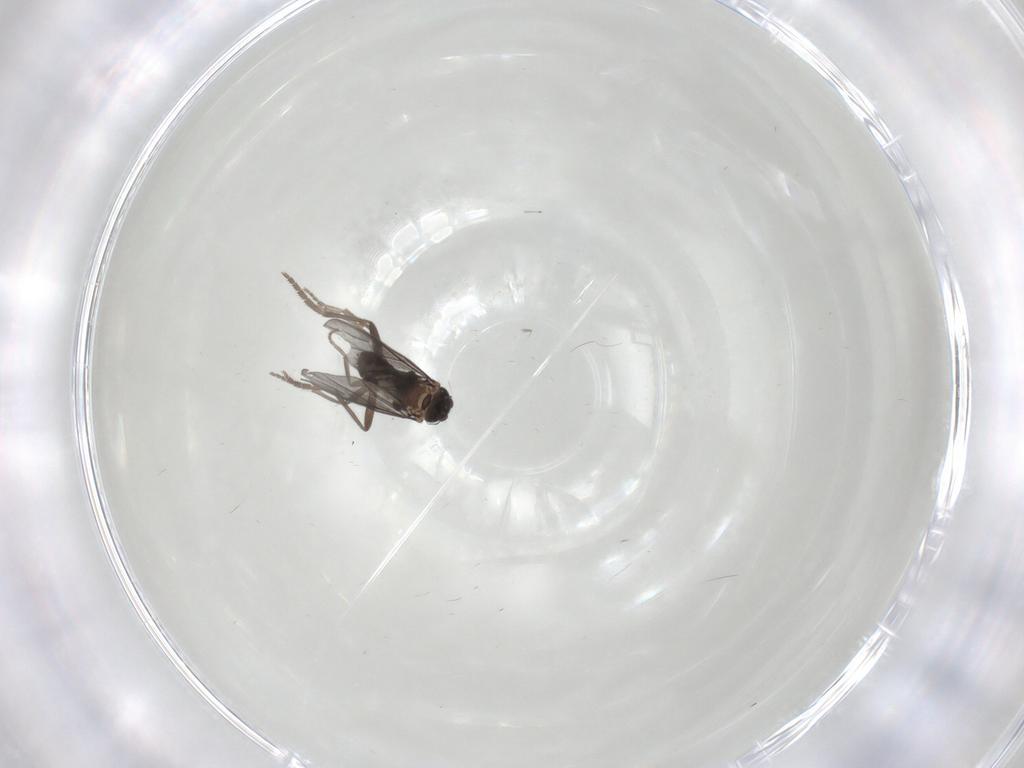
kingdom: Animalia
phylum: Arthropoda
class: Insecta
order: Diptera
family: Phoridae
